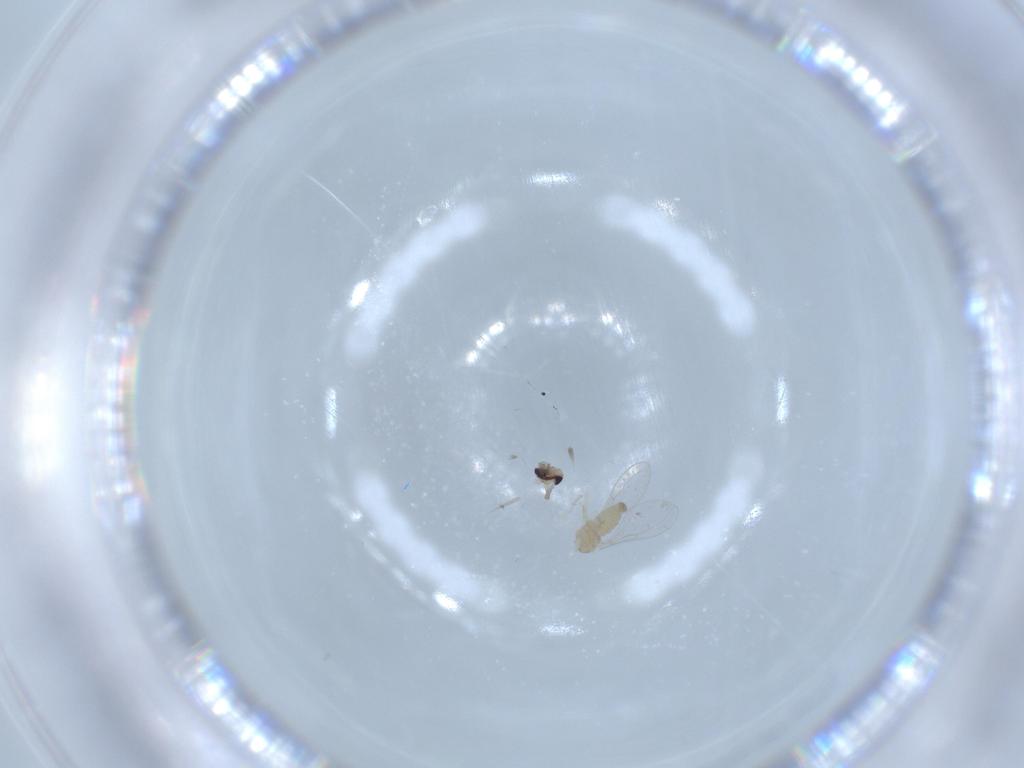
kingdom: Animalia
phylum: Arthropoda
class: Insecta
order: Diptera
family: Cecidomyiidae
